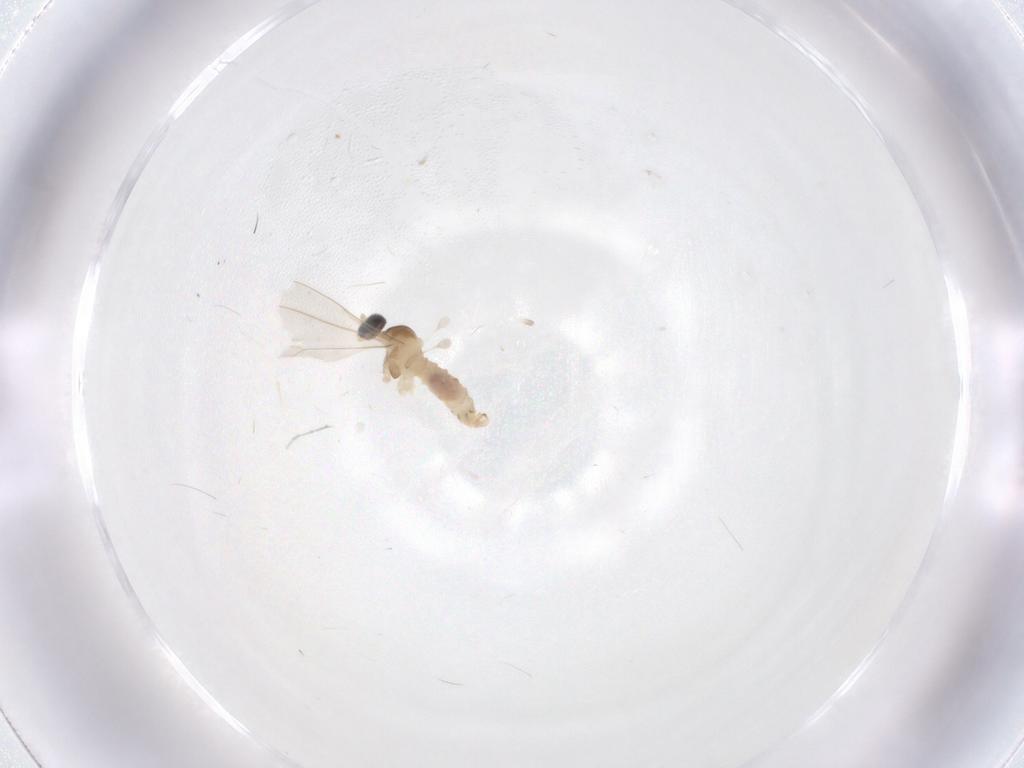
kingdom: Animalia
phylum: Arthropoda
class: Insecta
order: Diptera
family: Cecidomyiidae
